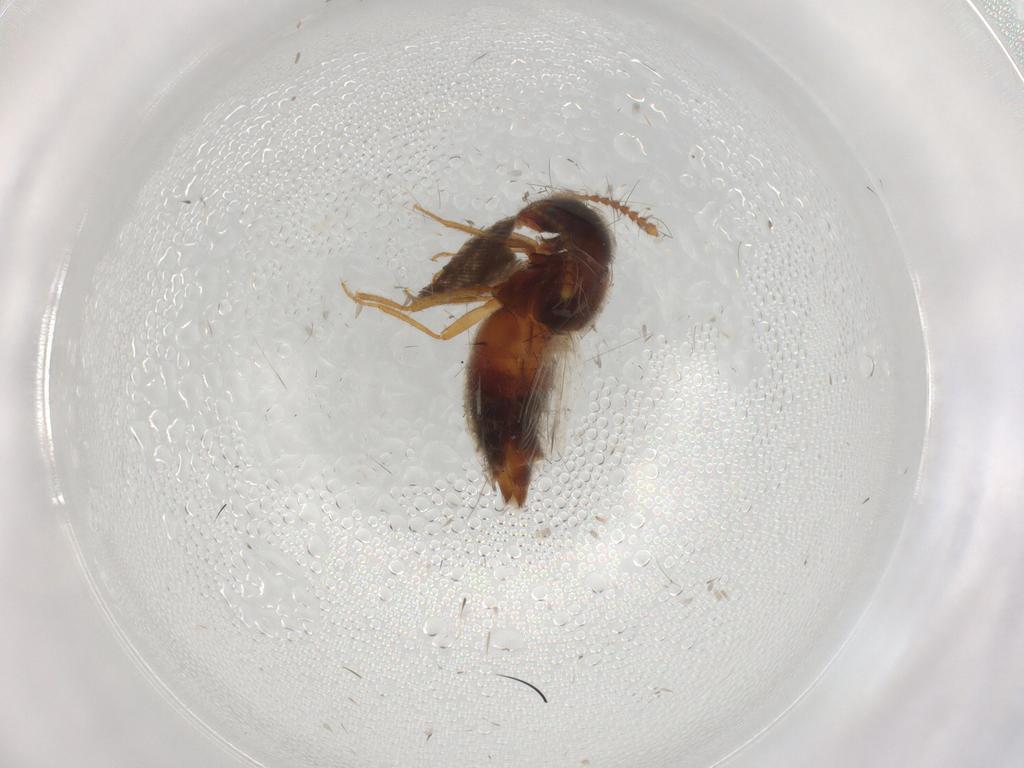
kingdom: Animalia
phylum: Arthropoda
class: Insecta
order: Coleoptera
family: Staphylinidae
